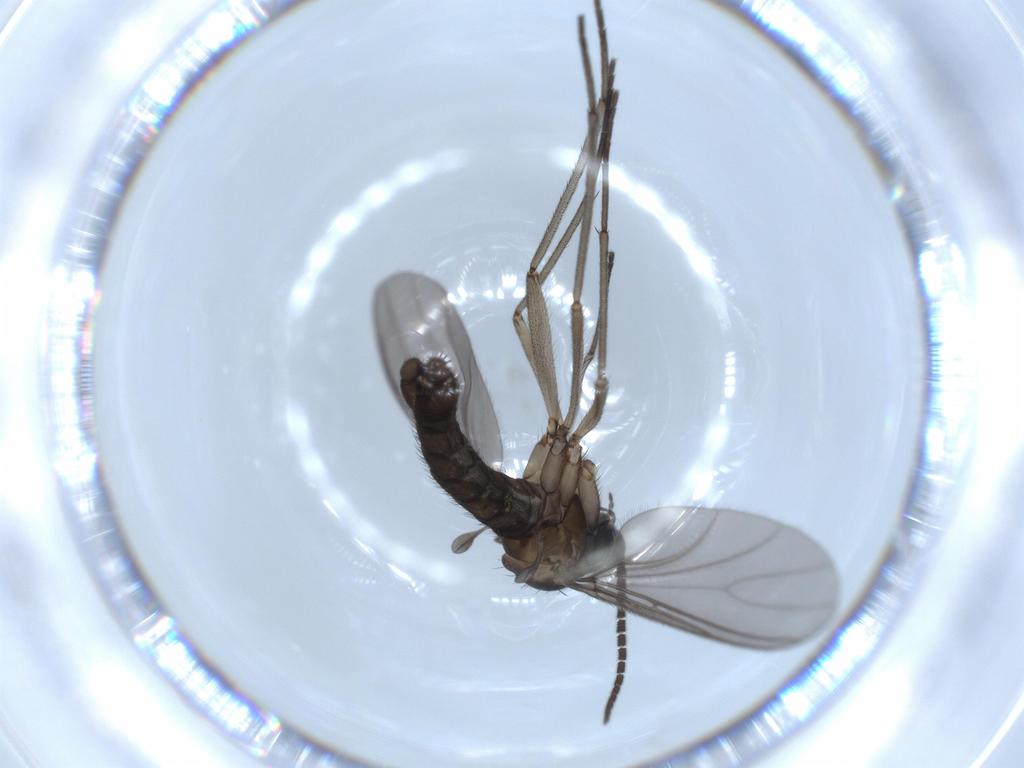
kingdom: Animalia
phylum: Arthropoda
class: Insecta
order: Diptera
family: Sciaridae
